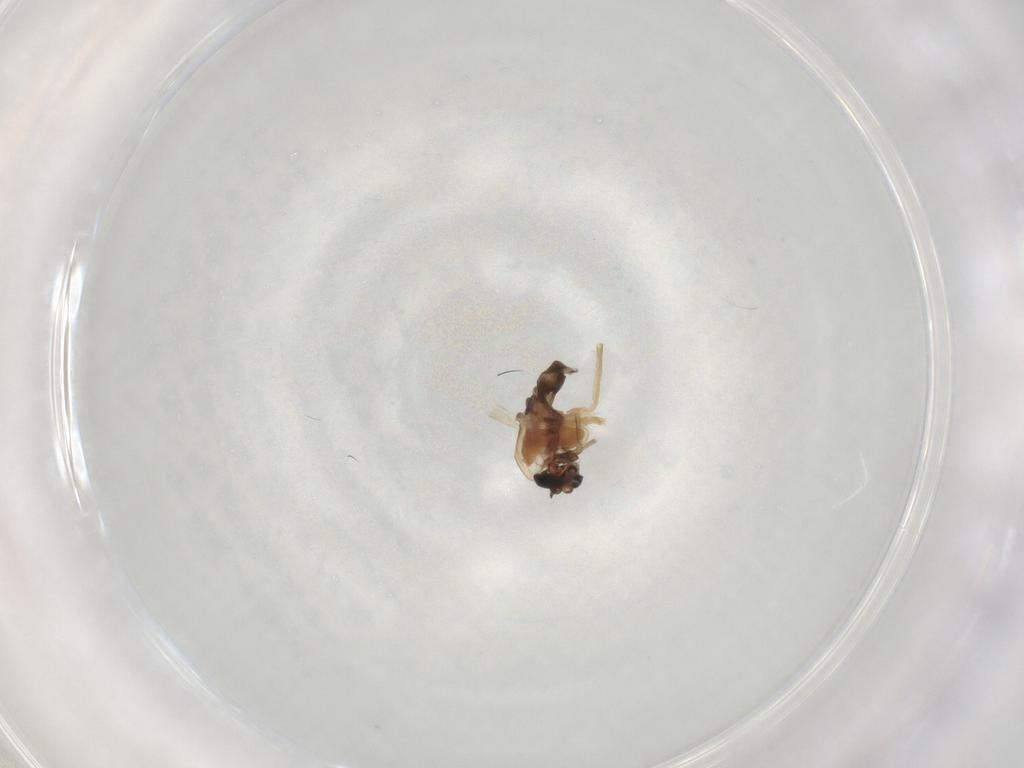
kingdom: Animalia
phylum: Arthropoda
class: Insecta
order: Diptera
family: Chironomidae
